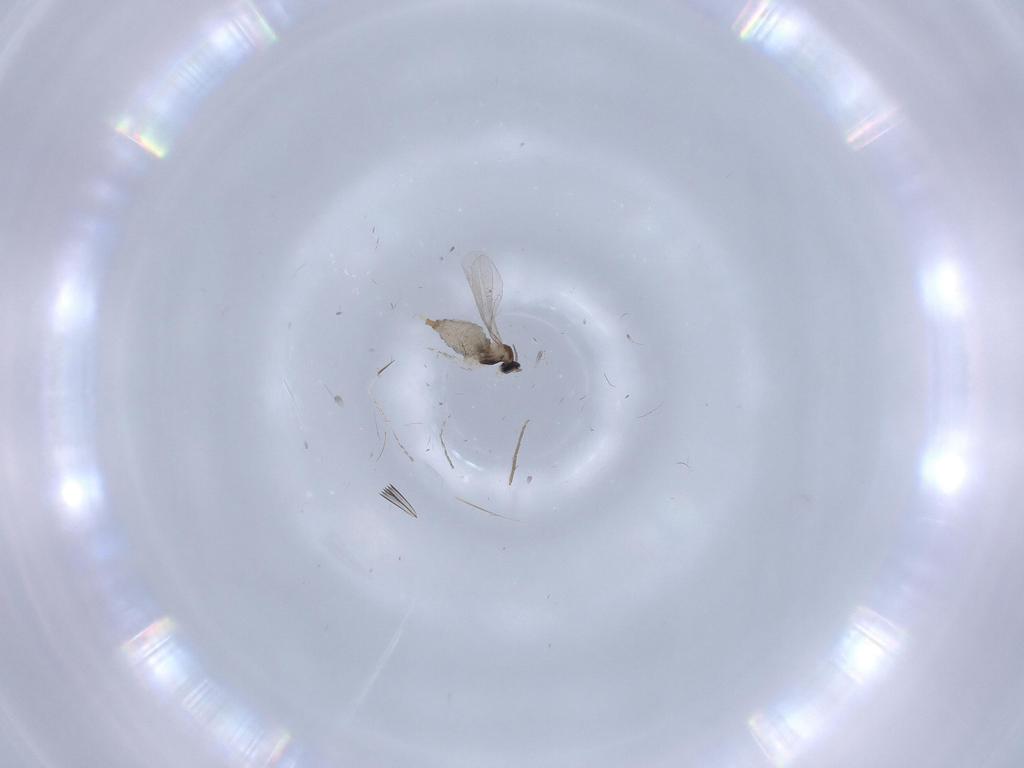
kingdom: Animalia
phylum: Arthropoda
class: Insecta
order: Diptera
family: Chironomidae
